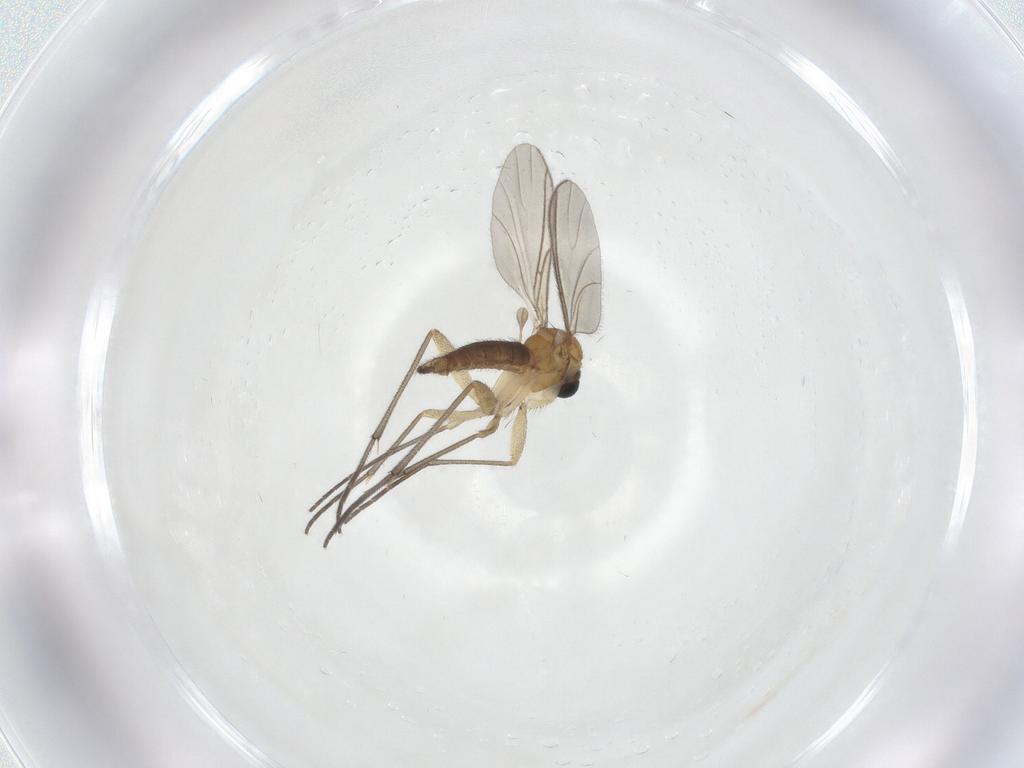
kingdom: Animalia
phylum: Arthropoda
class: Insecta
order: Diptera
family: Sciaridae
